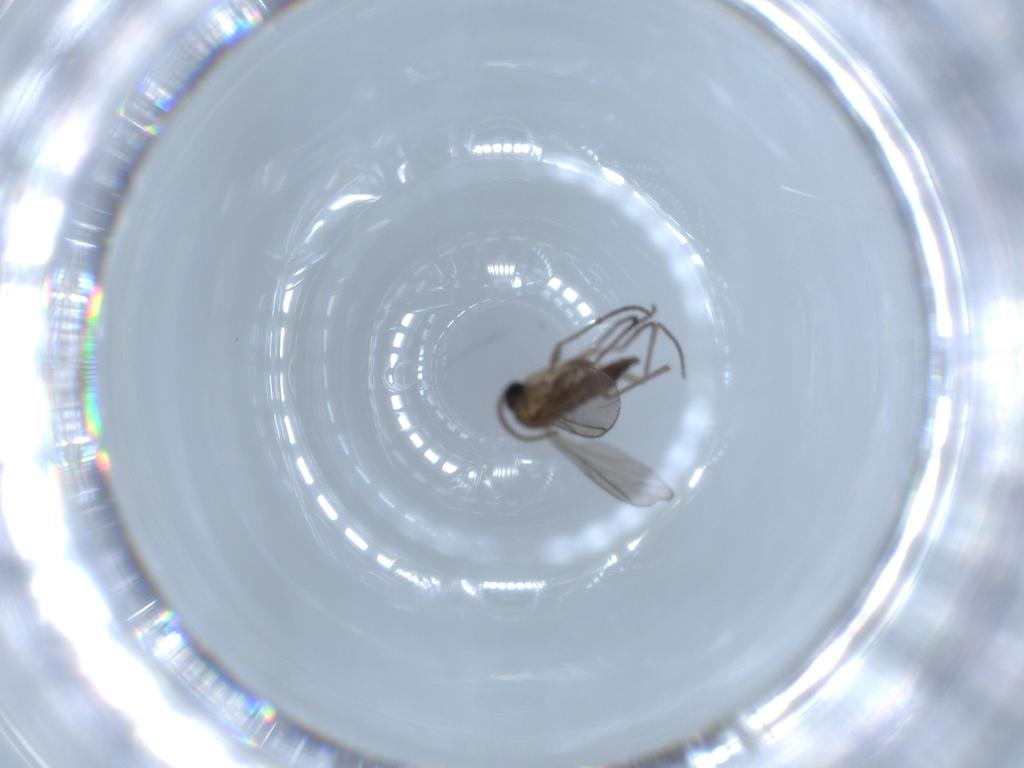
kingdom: Animalia
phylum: Arthropoda
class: Insecta
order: Diptera
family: Sciaridae
